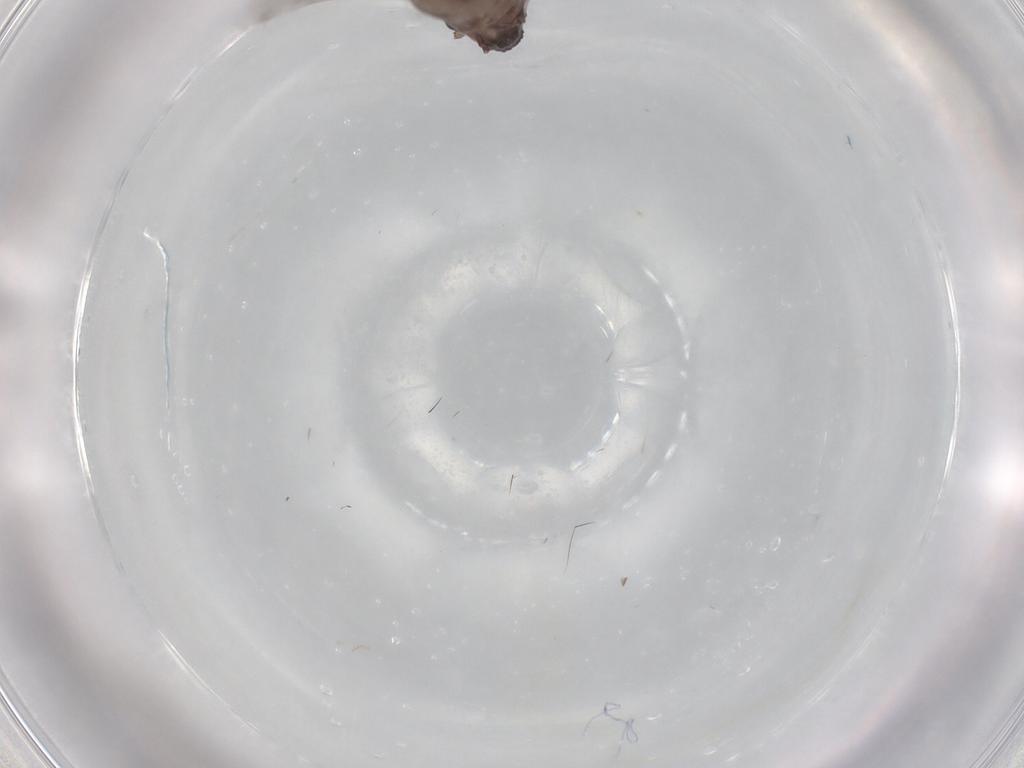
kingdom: Animalia
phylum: Arthropoda
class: Insecta
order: Psocodea
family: Peripsocidae
